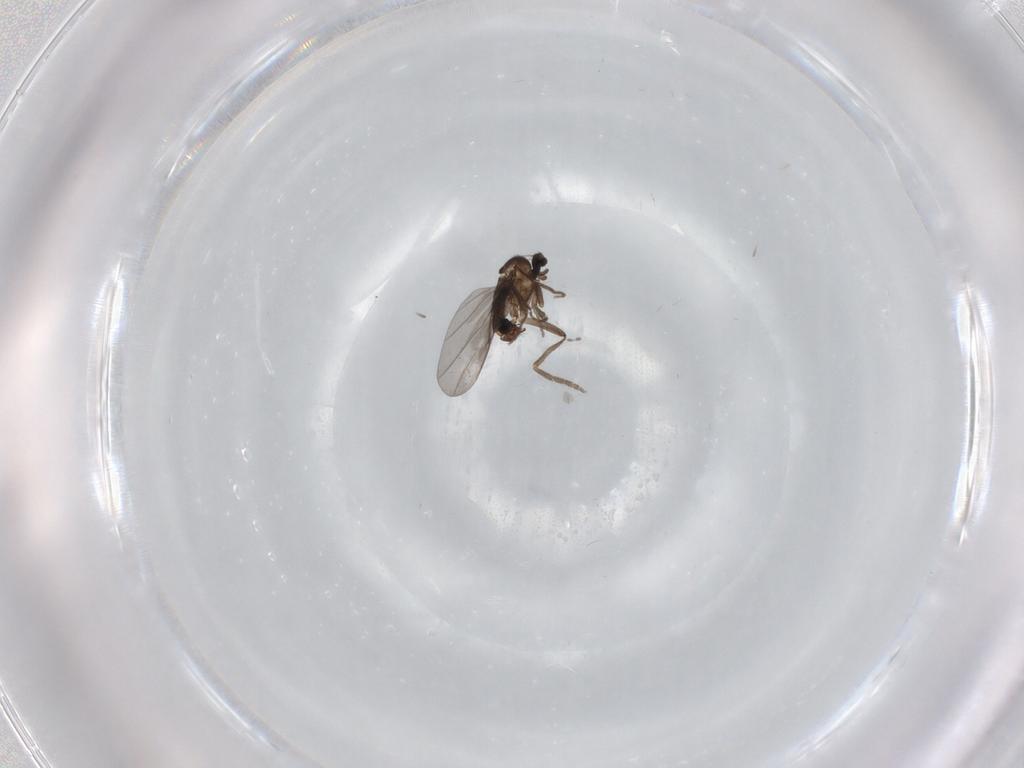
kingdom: Animalia
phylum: Arthropoda
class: Insecta
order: Diptera
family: Phoridae
